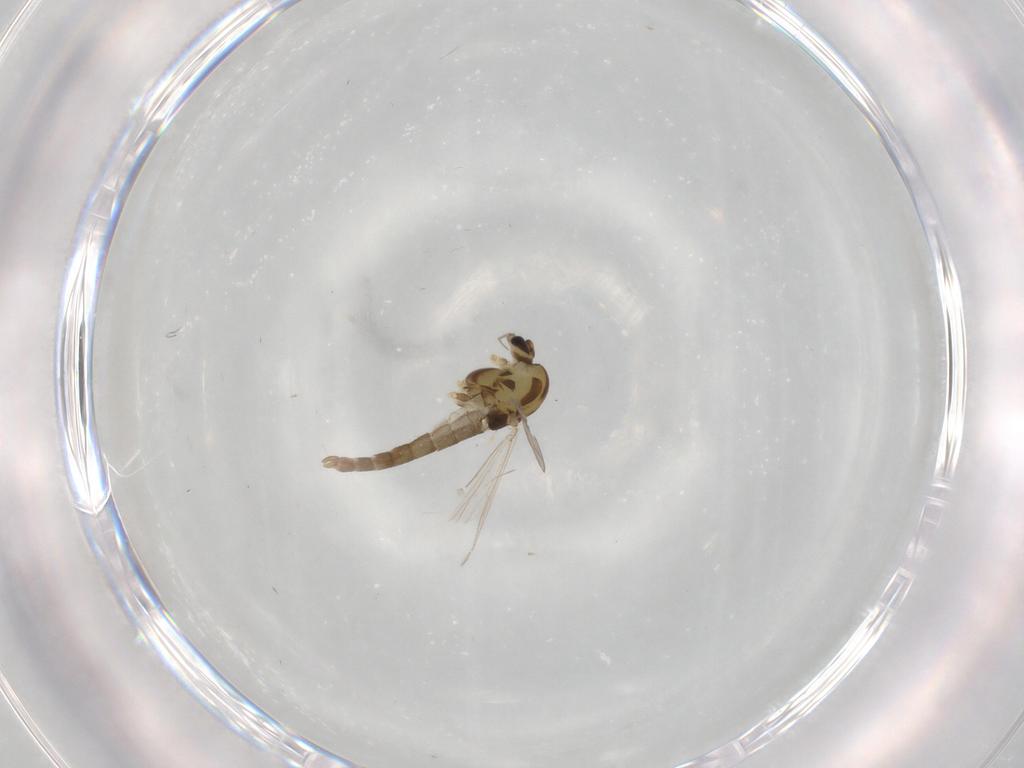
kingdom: Animalia
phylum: Arthropoda
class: Insecta
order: Diptera
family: Chironomidae
